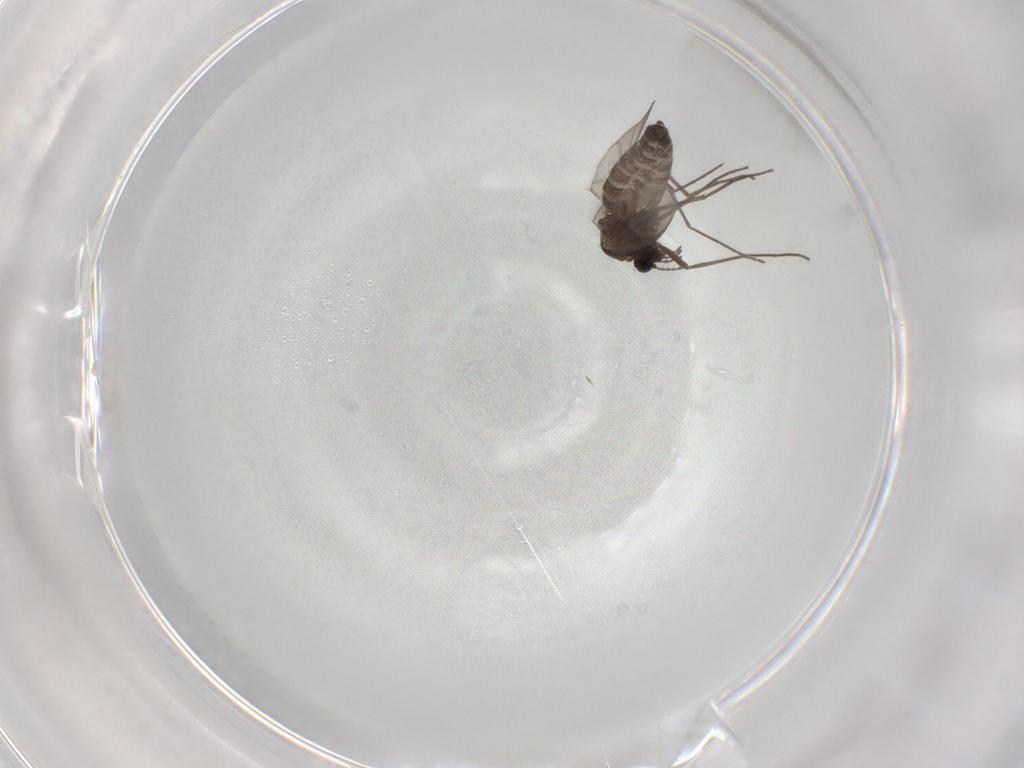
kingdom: Animalia
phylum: Arthropoda
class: Insecta
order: Diptera
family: Chironomidae
